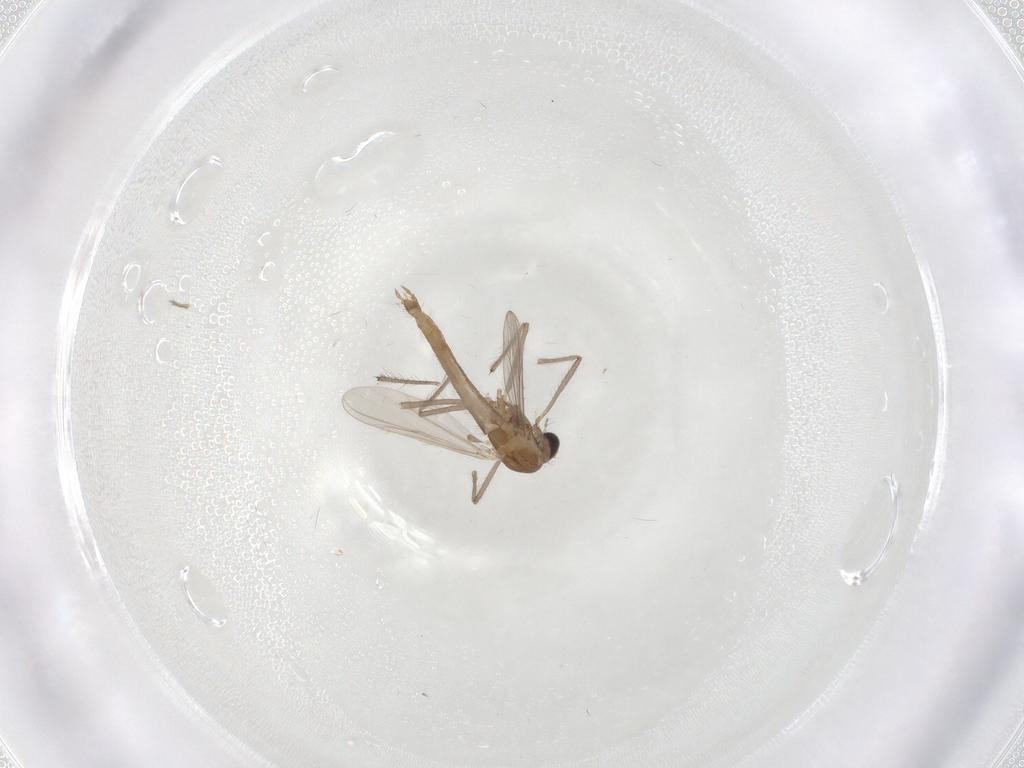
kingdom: Animalia
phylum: Arthropoda
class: Insecta
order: Diptera
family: Chironomidae
